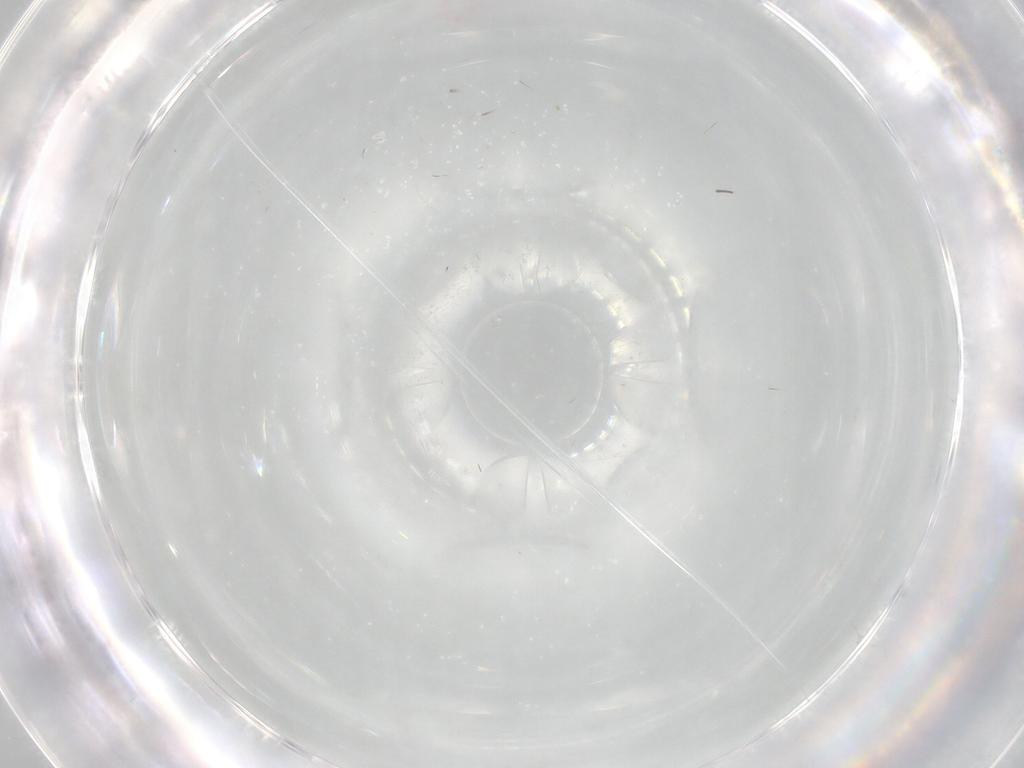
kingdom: Animalia
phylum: Arthropoda
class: Insecta
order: Hymenoptera
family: Mymaridae
